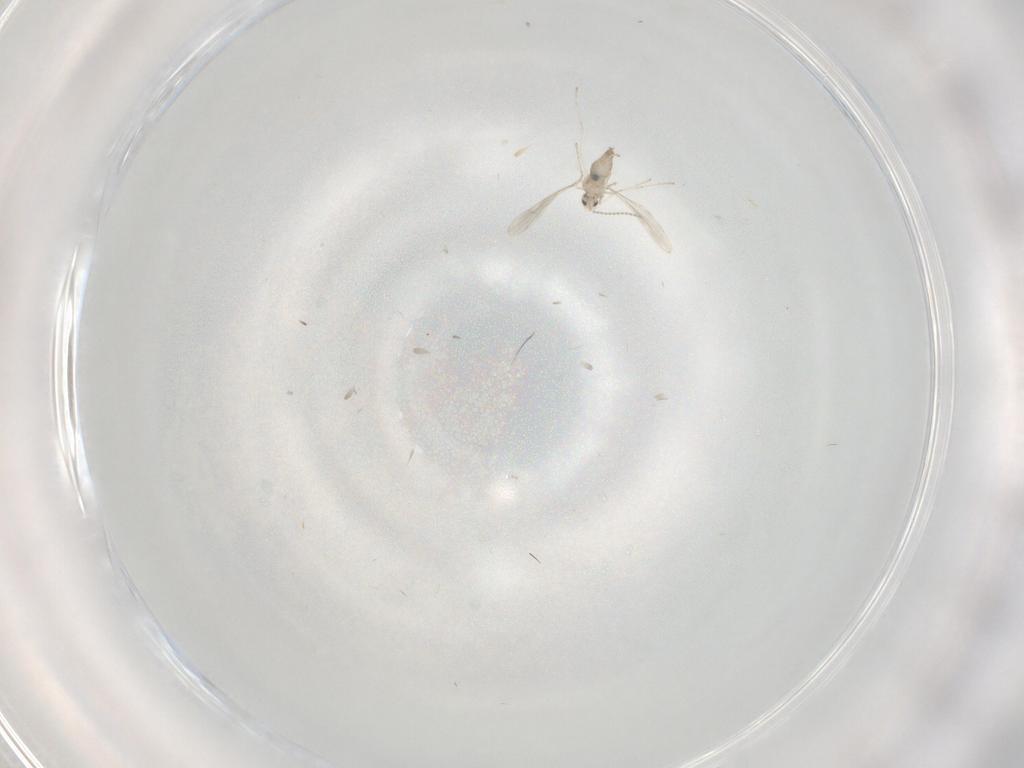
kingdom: Animalia
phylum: Arthropoda
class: Insecta
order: Diptera
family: Cecidomyiidae
